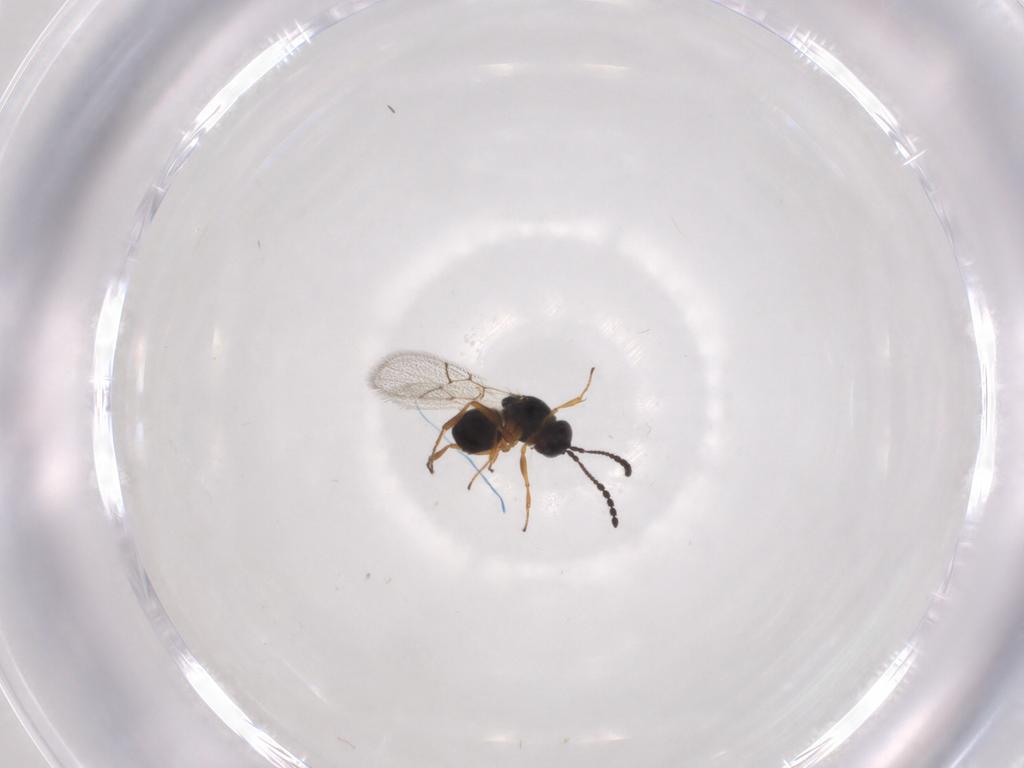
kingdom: Animalia
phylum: Arthropoda
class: Insecta
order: Hymenoptera
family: Figitidae
